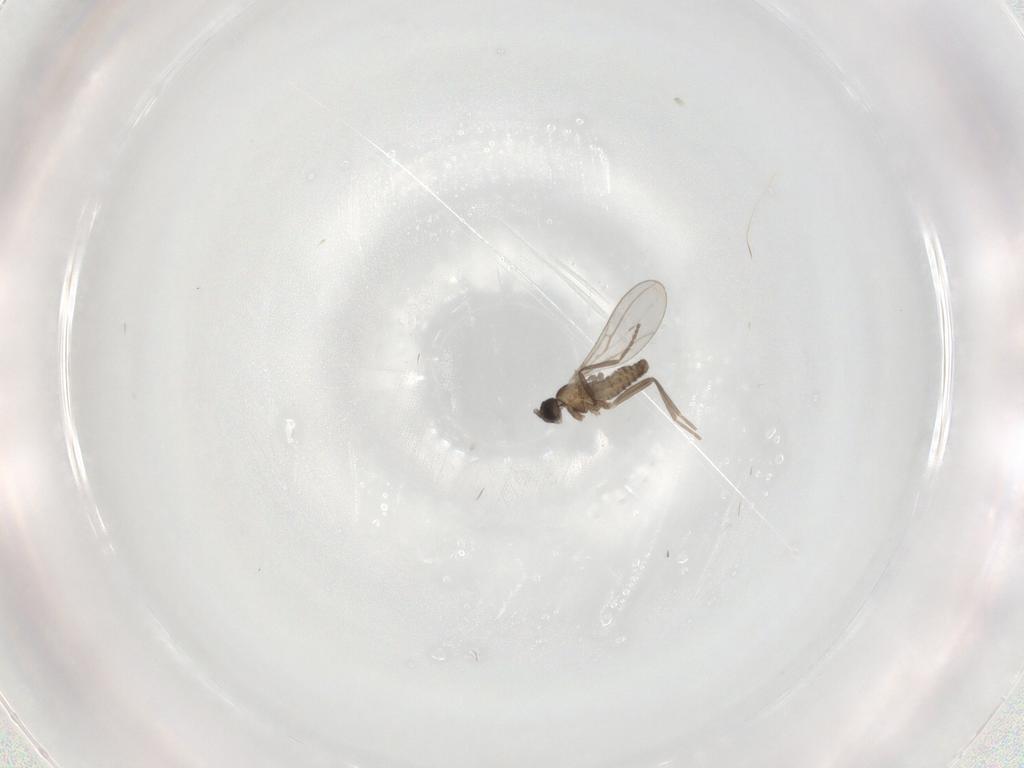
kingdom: Animalia
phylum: Arthropoda
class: Insecta
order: Diptera
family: Cecidomyiidae
